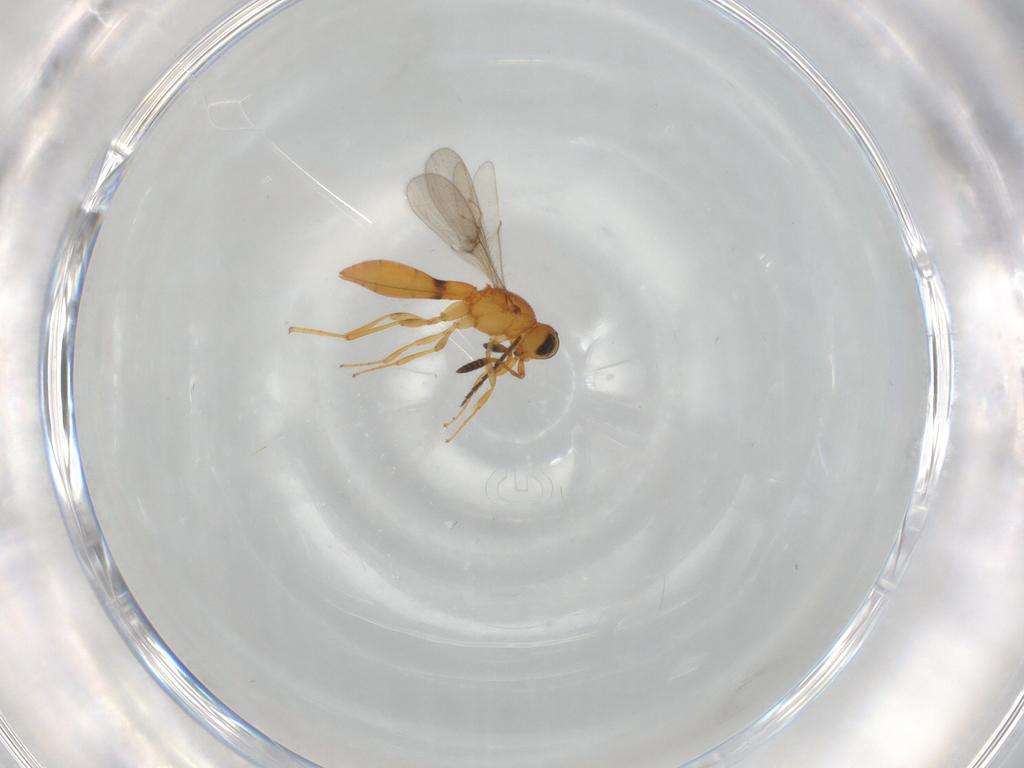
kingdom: Animalia
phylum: Arthropoda
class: Insecta
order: Hymenoptera
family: Scelionidae
